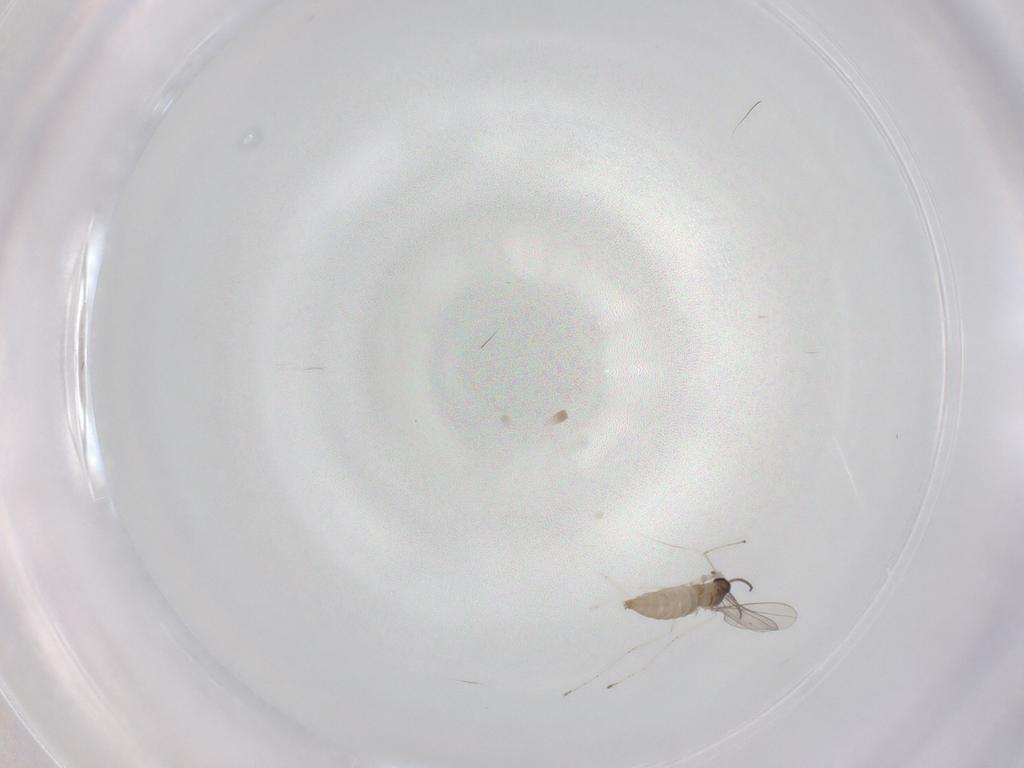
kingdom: Animalia
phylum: Arthropoda
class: Insecta
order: Diptera
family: Cecidomyiidae
